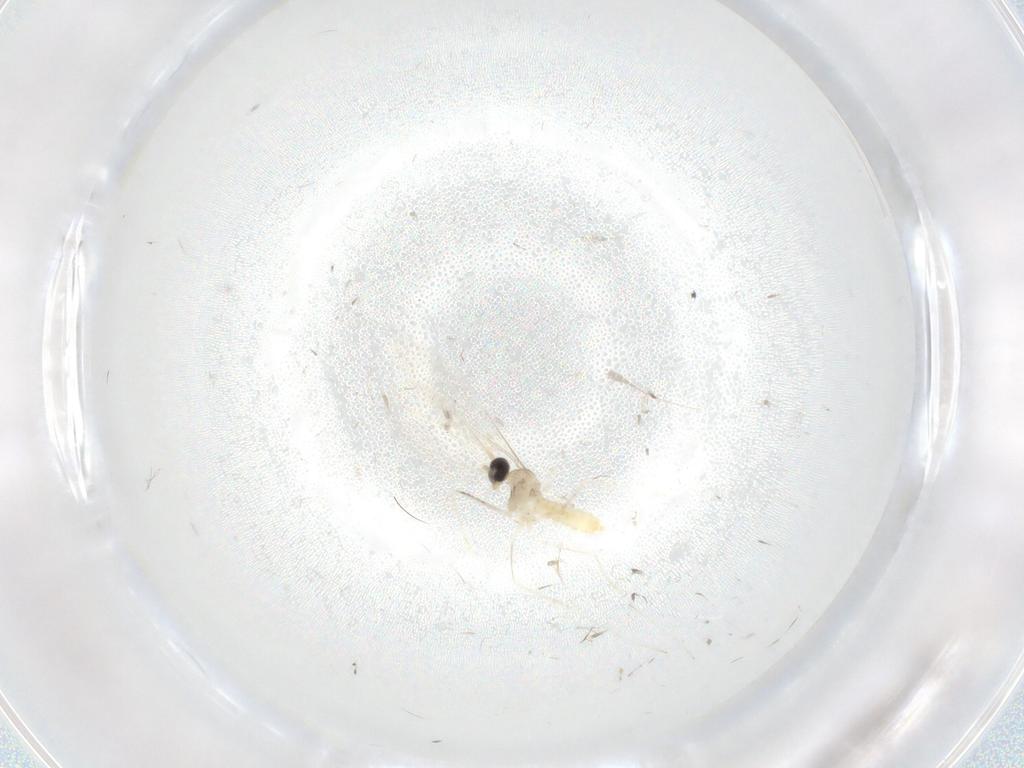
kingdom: Animalia
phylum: Arthropoda
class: Insecta
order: Diptera
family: Cecidomyiidae
